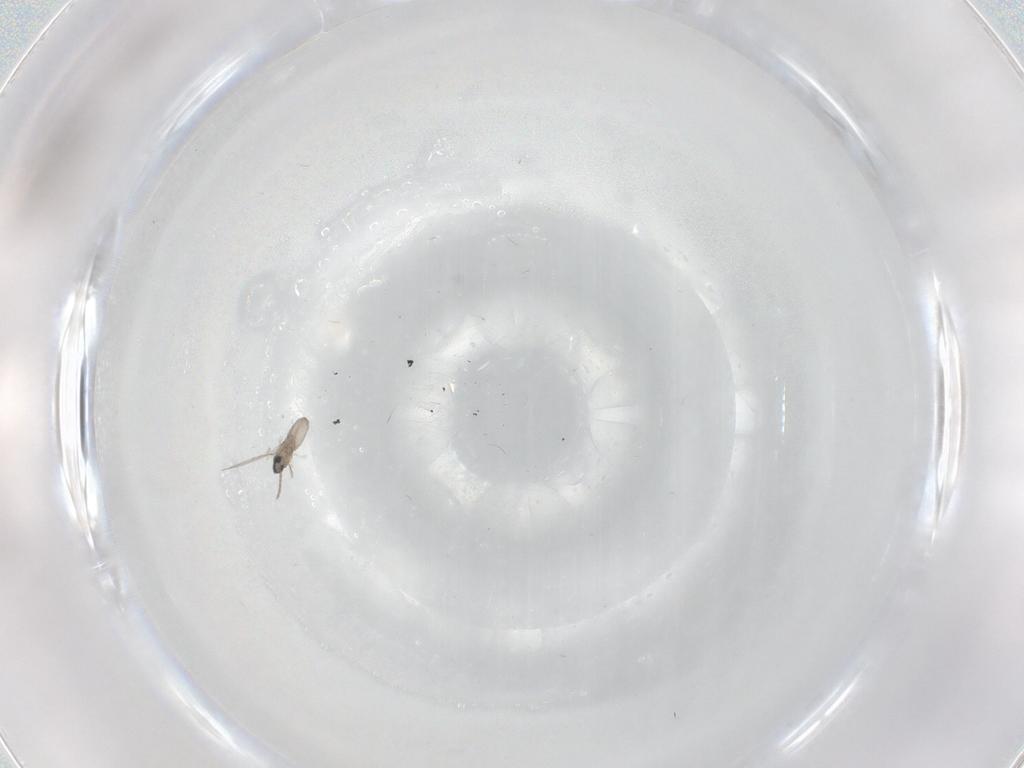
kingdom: Animalia
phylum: Arthropoda
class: Insecta
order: Diptera
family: Cecidomyiidae
